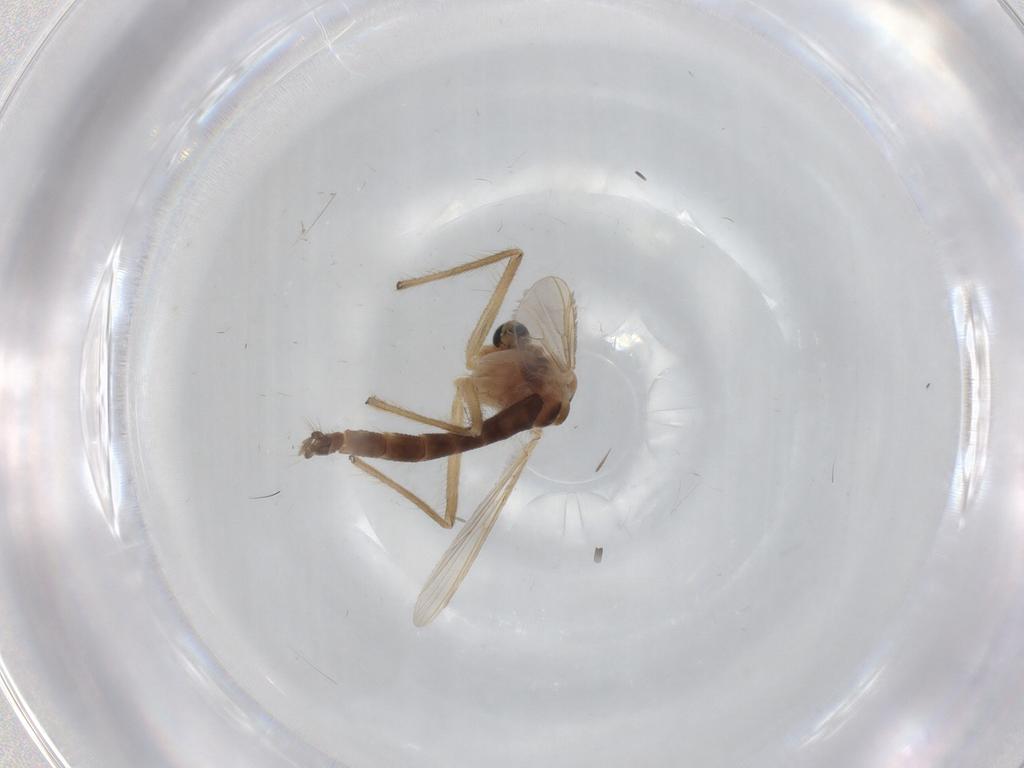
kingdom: Animalia
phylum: Arthropoda
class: Insecta
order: Diptera
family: Chironomidae
